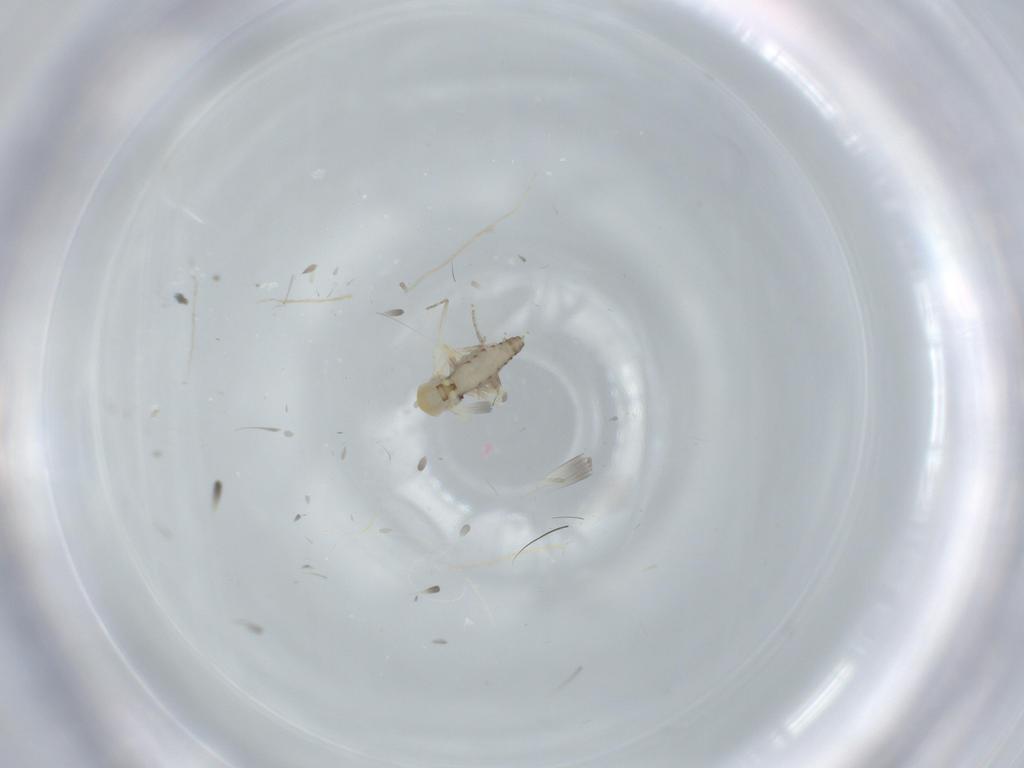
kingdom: Animalia
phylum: Arthropoda
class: Insecta
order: Diptera
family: Ceratopogonidae
